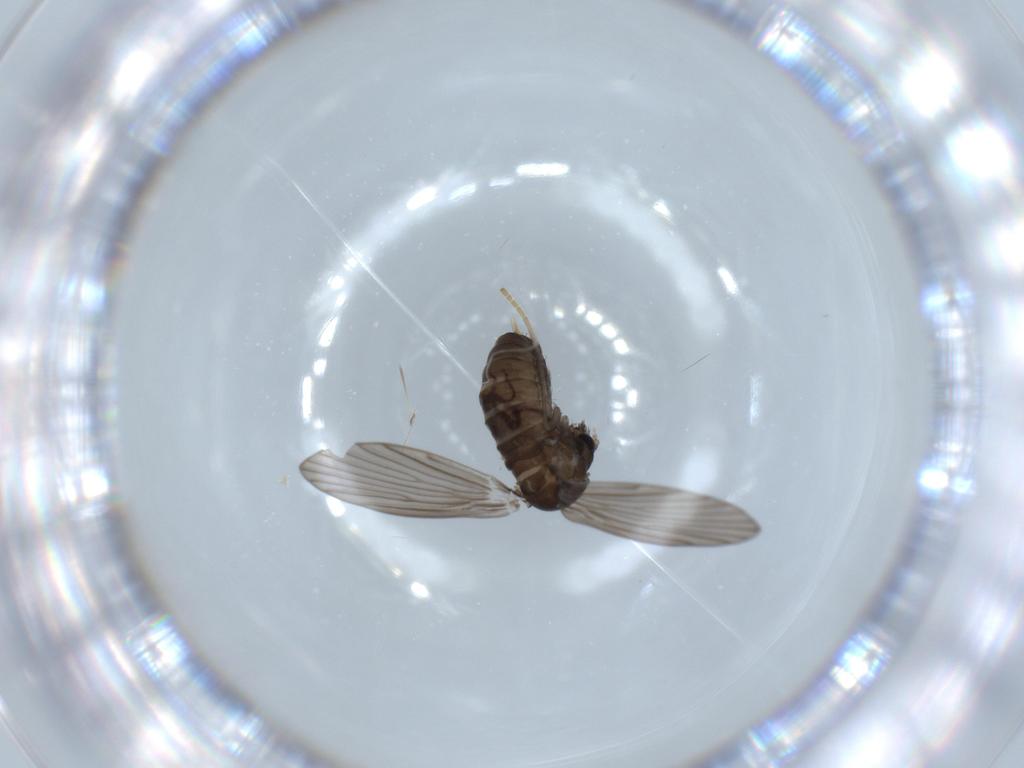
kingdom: Animalia
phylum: Arthropoda
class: Insecta
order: Diptera
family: Psychodidae
